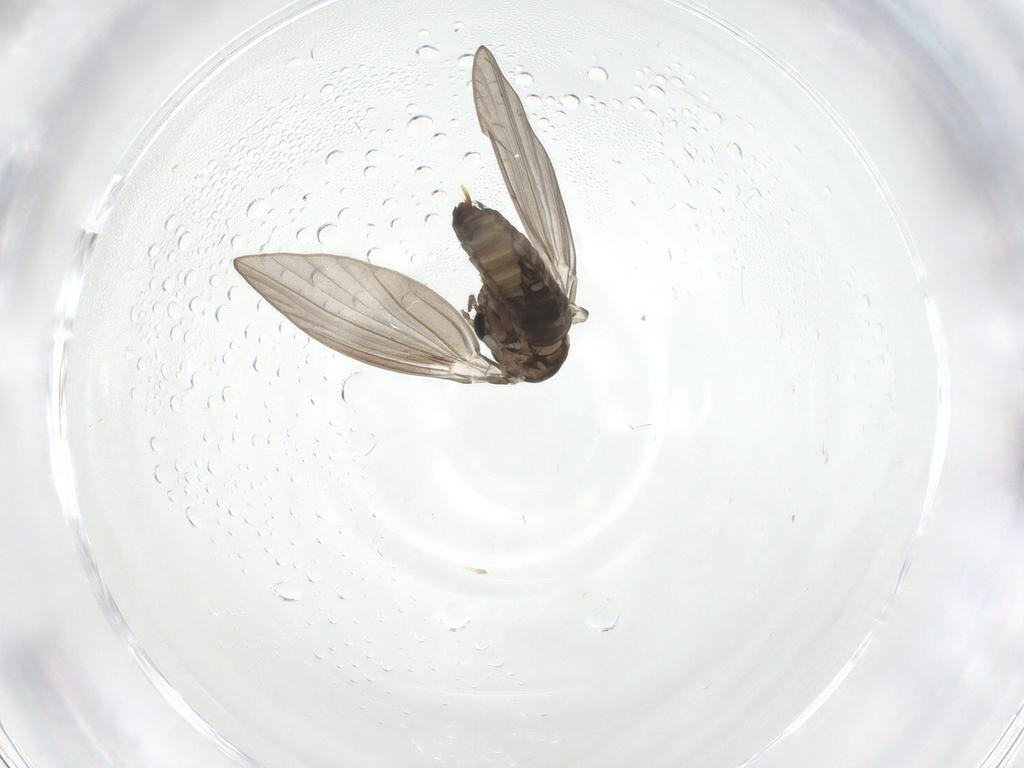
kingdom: Animalia
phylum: Arthropoda
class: Insecta
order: Diptera
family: Psychodidae
